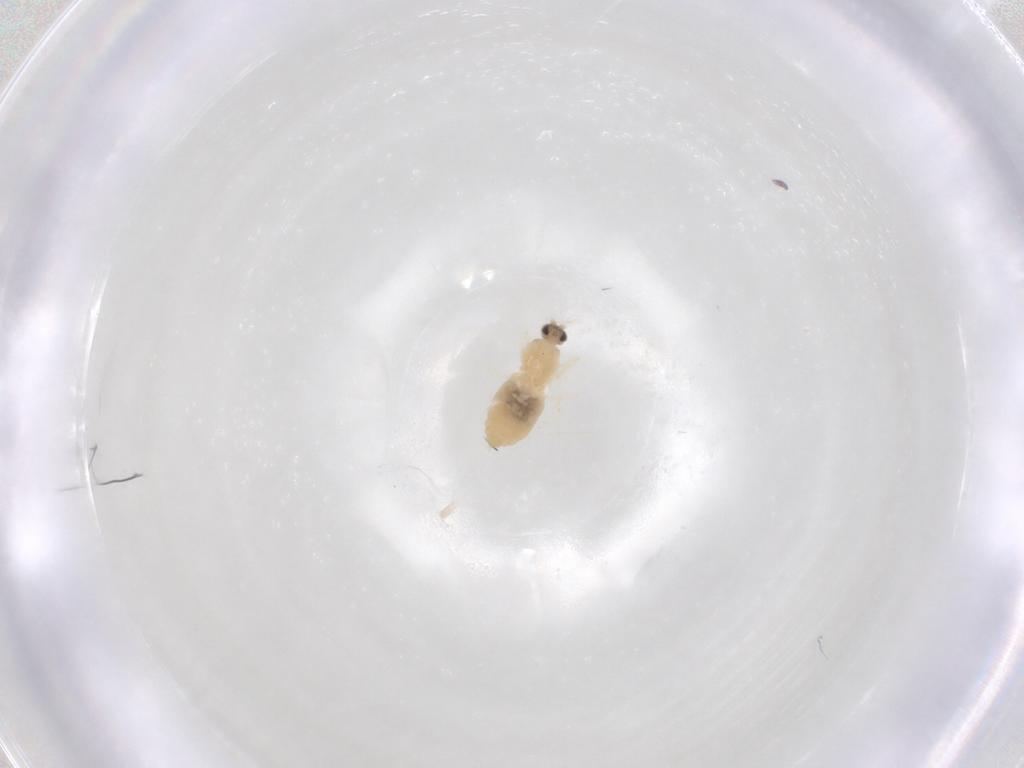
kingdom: Animalia
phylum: Arthropoda
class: Insecta
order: Diptera
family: Cecidomyiidae
